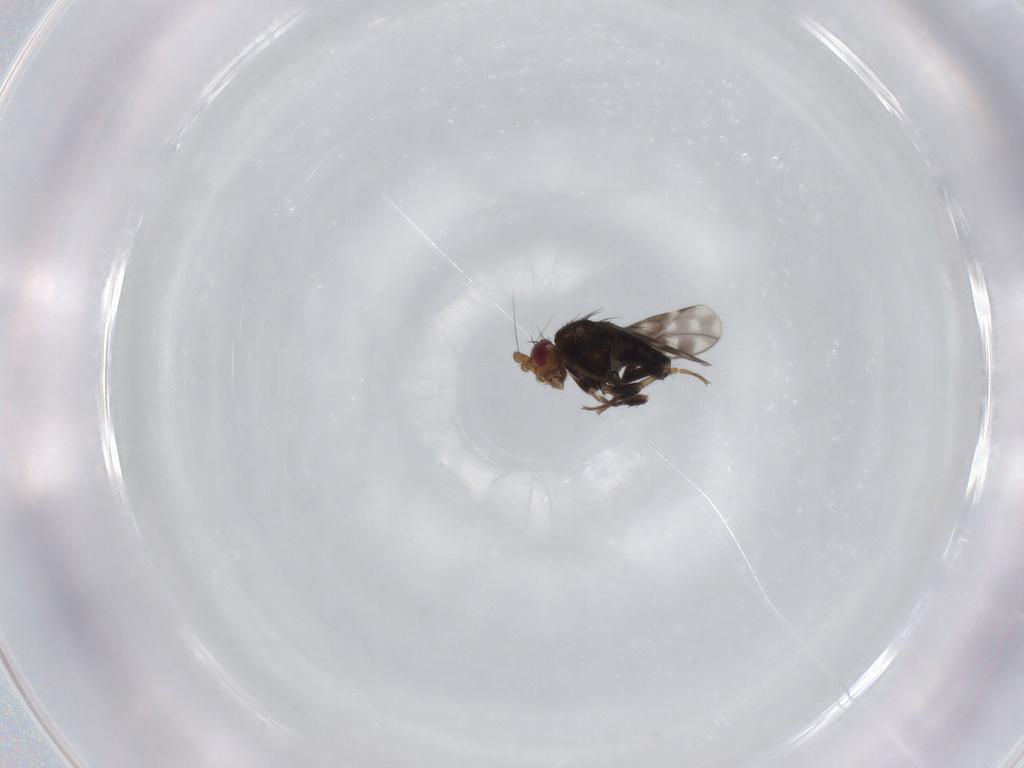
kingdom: Animalia
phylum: Arthropoda
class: Insecta
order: Diptera
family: Sphaeroceridae
